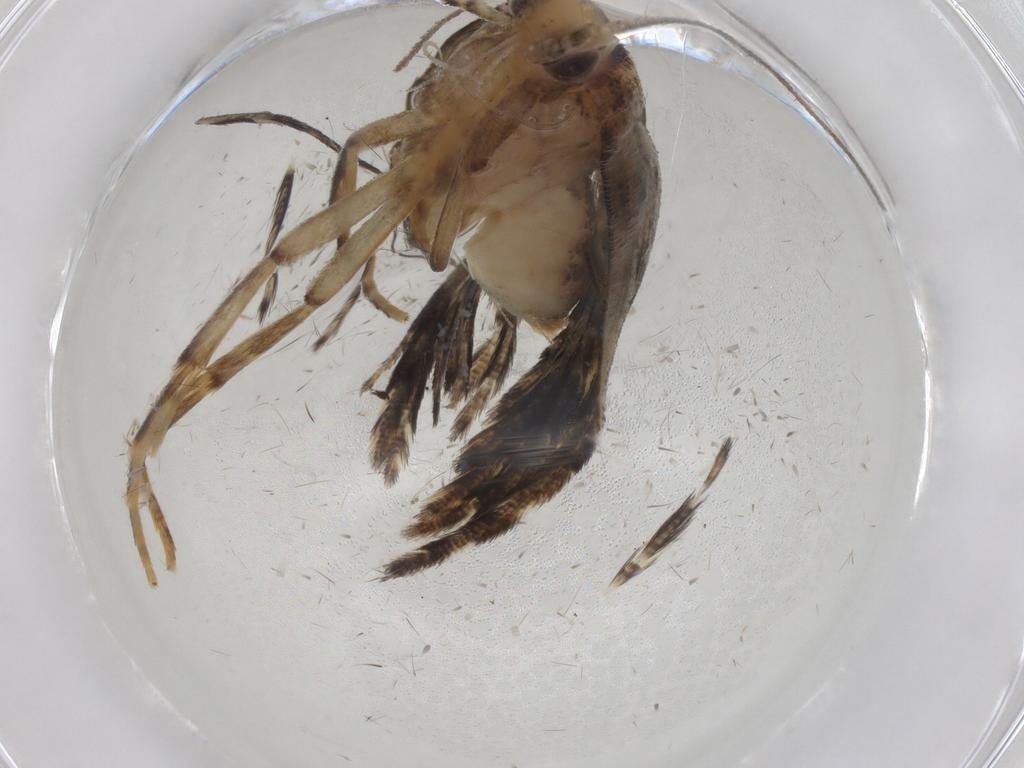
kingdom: Animalia
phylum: Arthropoda
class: Insecta
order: Lepidoptera
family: Erebidae
